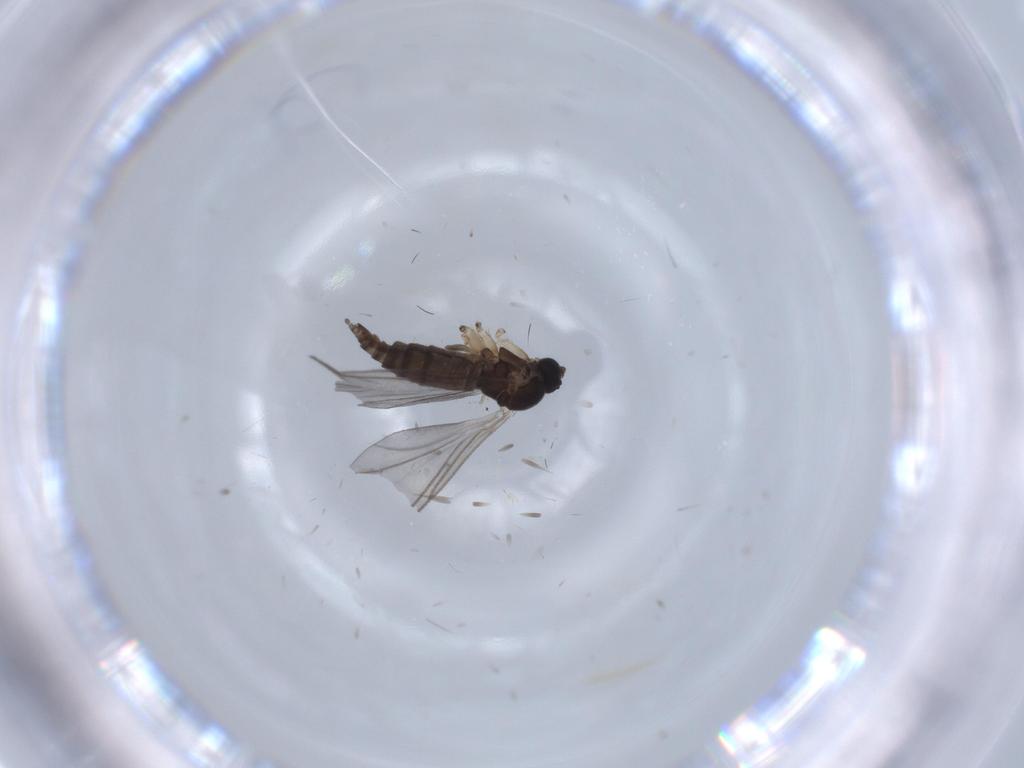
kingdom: Animalia
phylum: Arthropoda
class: Insecta
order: Diptera
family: Sciaridae
